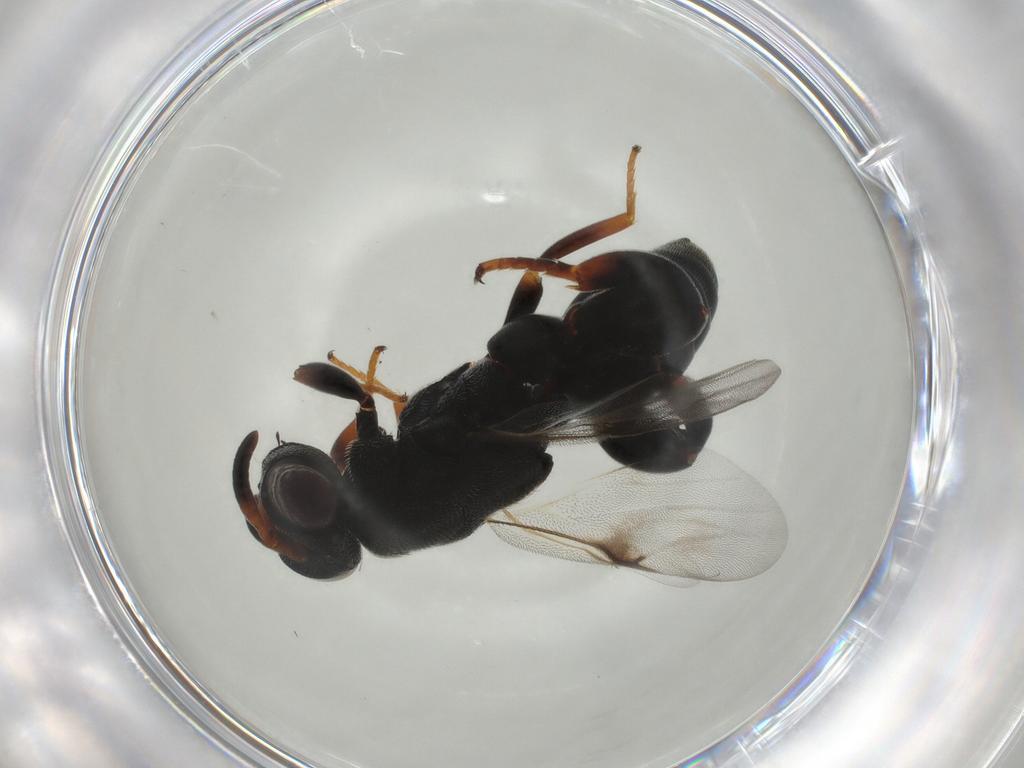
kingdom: Animalia
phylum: Arthropoda
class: Insecta
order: Hymenoptera
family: Chalcididae
